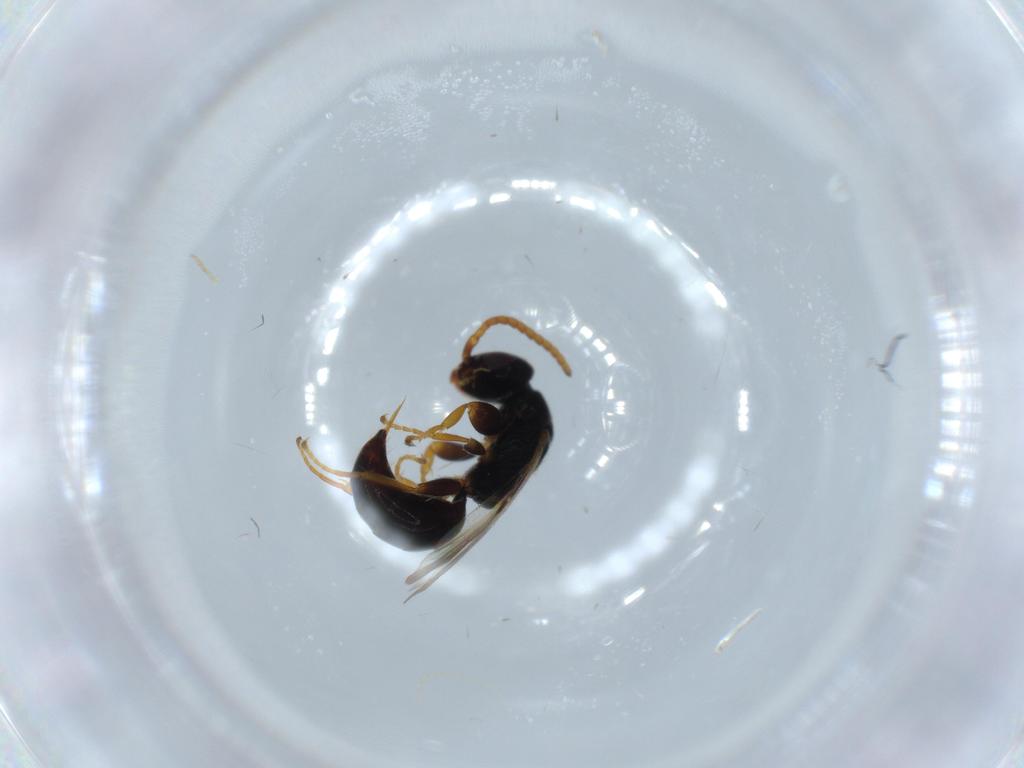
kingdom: Animalia
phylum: Arthropoda
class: Insecta
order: Hymenoptera
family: Bethylidae
